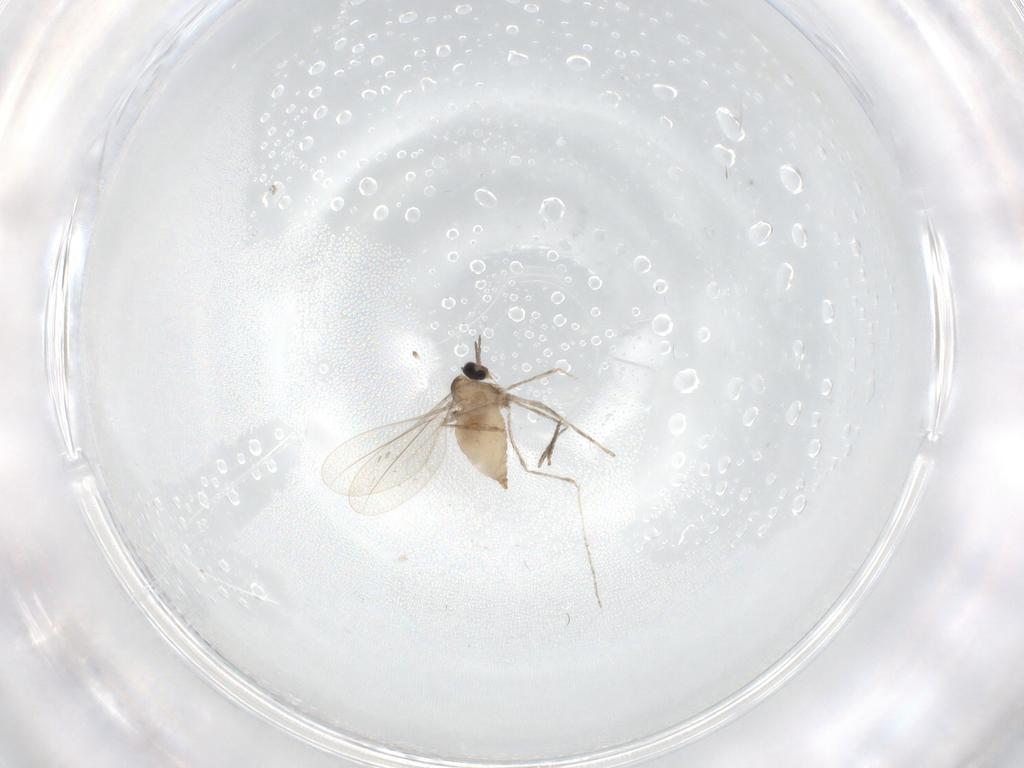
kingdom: Animalia
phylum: Arthropoda
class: Insecta
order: Diptera
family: Cecidomyiidae
